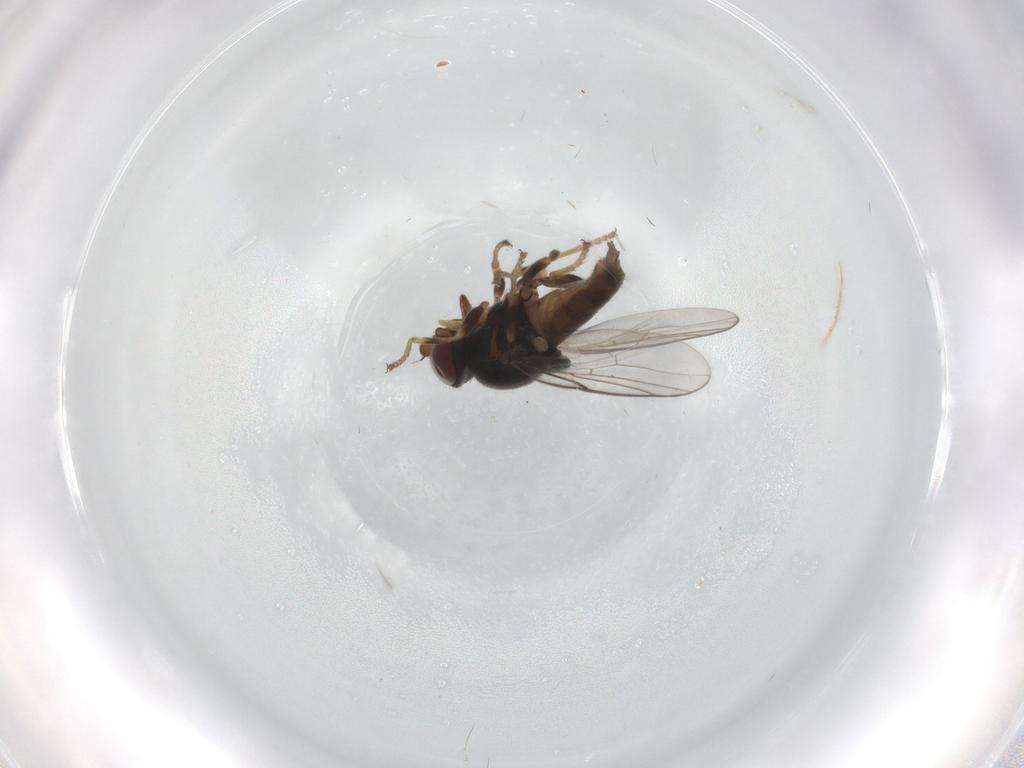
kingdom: Animalia
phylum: Arthropoda
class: Insecta
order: Diptera
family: Chloropidae
